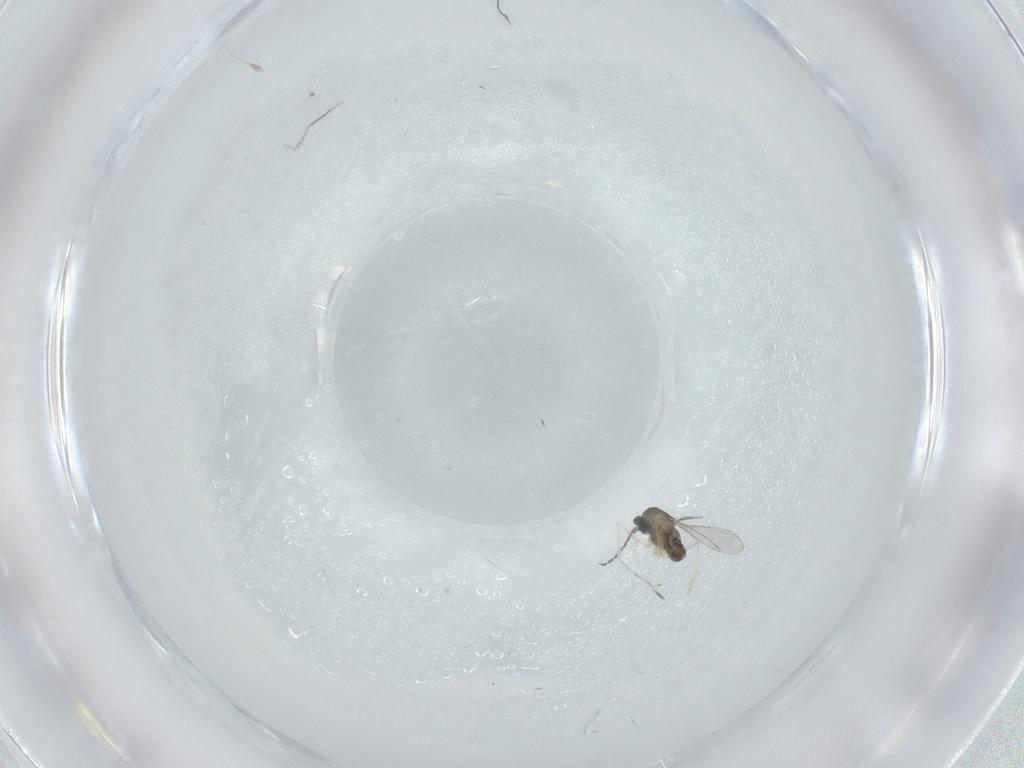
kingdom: Animalia
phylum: Arthropoda
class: Insecta
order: Diptera
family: Cecidomyiidae
